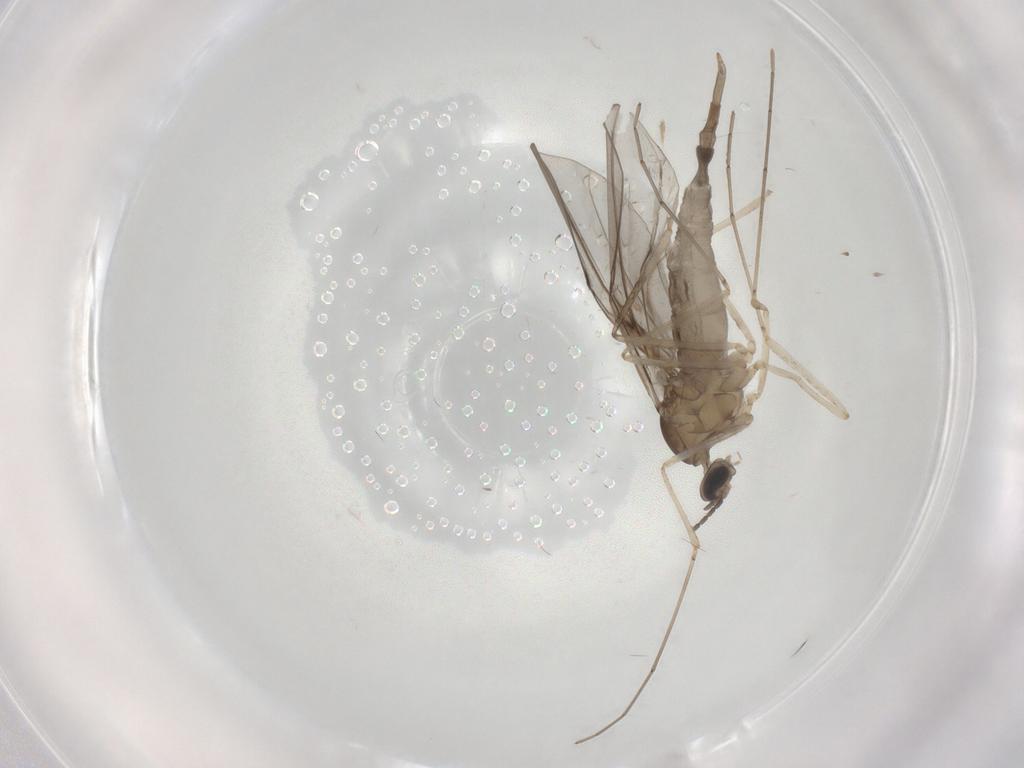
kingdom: Animalia
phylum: Arthropoda
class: Insecta
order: Diptera
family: Cecidomyiidae
